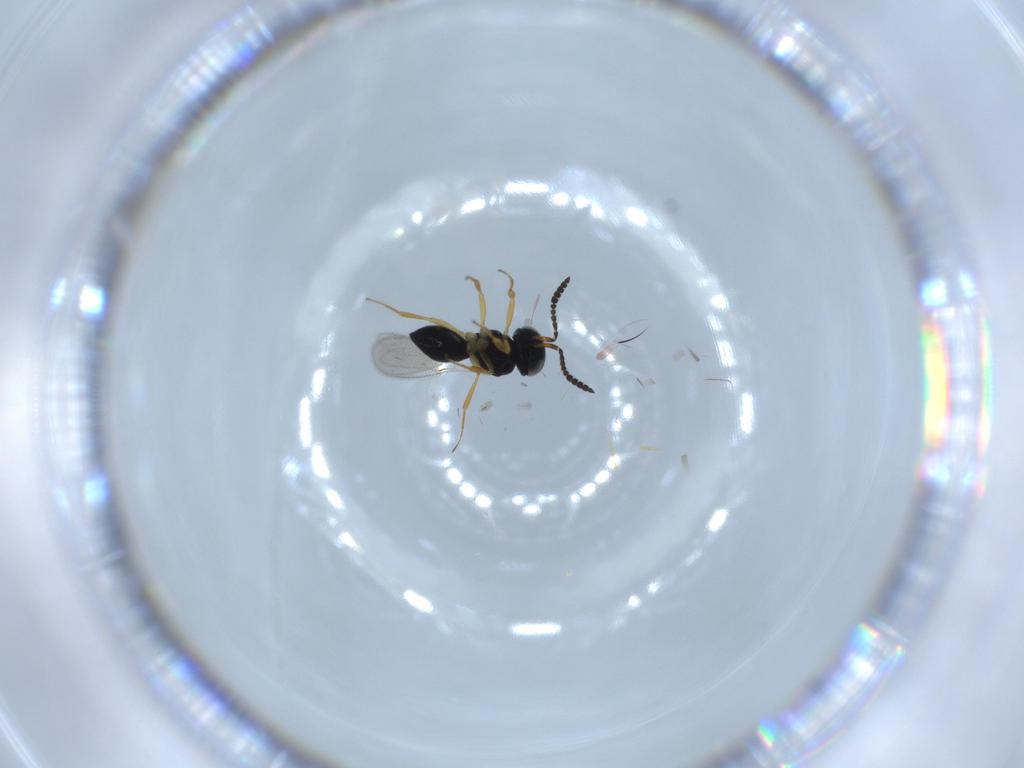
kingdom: Animalia
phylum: Arthropoda
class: Insecta
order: Hymenoptera
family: Scelionidae
